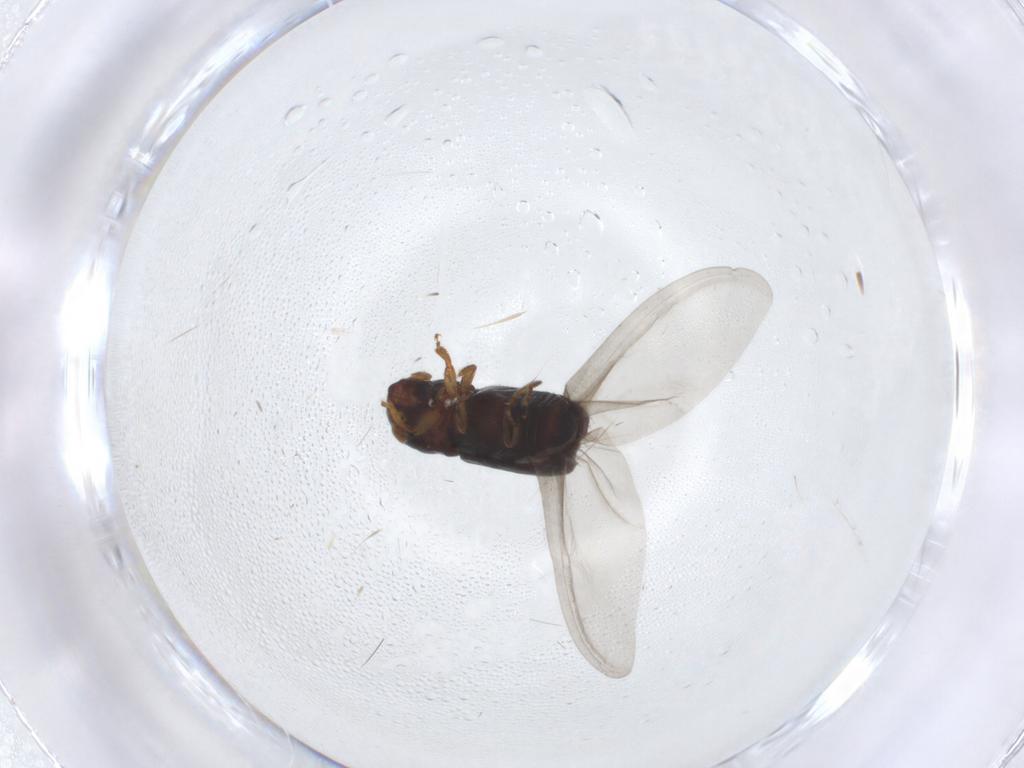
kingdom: Animalia
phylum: Arthropoda
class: Insecta
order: Coleoptera
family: Curculionidae
